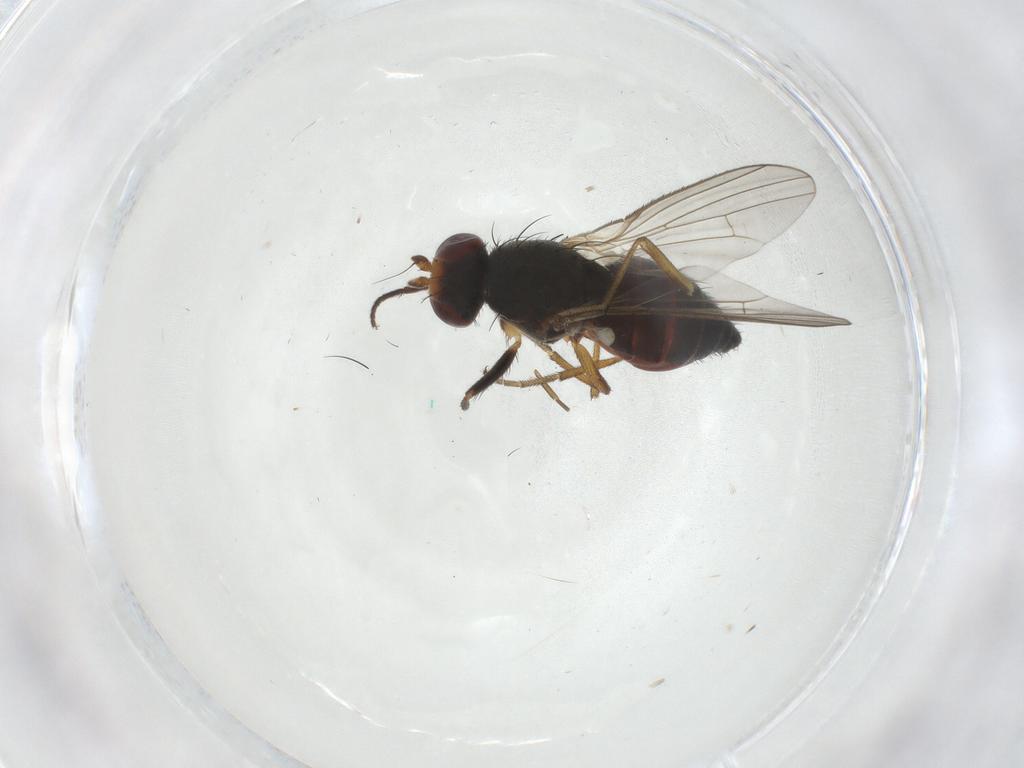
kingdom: Animalia
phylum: Arthropoda
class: Insecta
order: Diptera
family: Heleomyzidae
